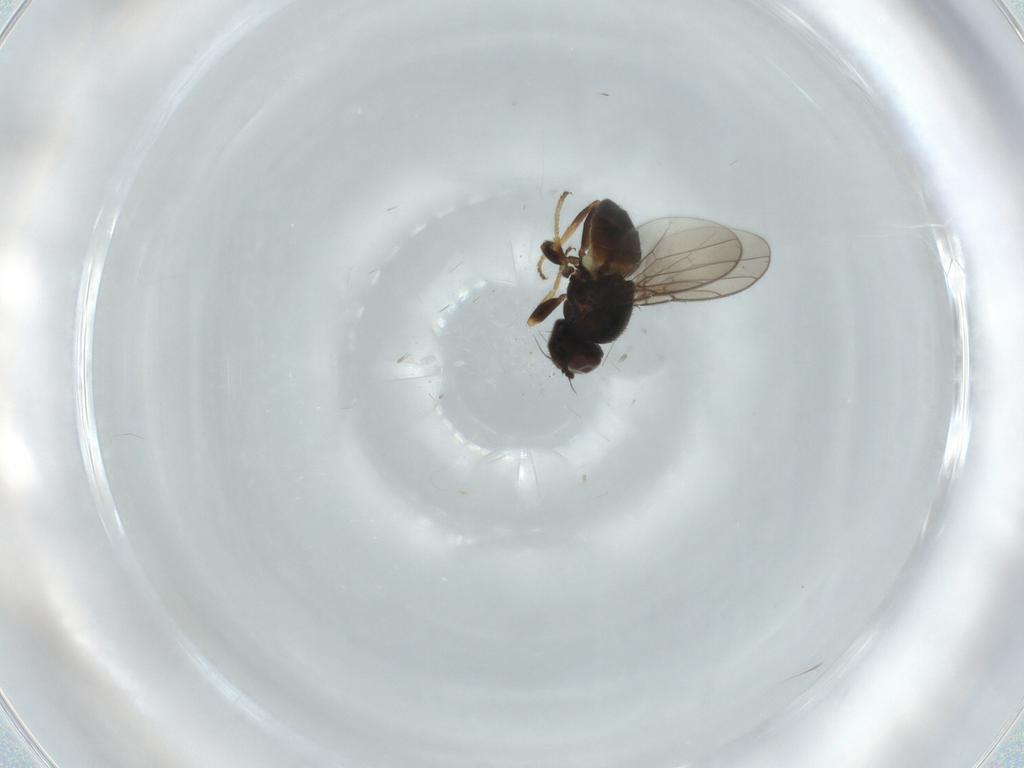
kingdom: Animalia
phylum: Arthropoda
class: Insecta
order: Diptera
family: Chloropidae
